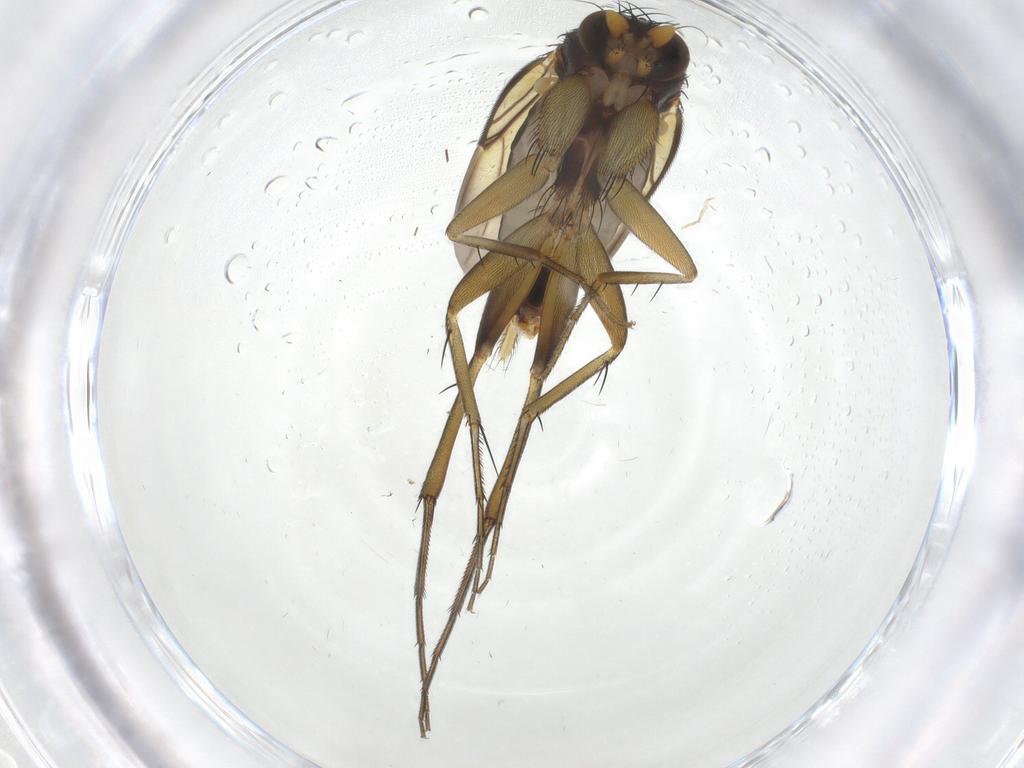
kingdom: Animalia
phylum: Arthropoda
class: Insecta
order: Diptera
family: Phoridae
